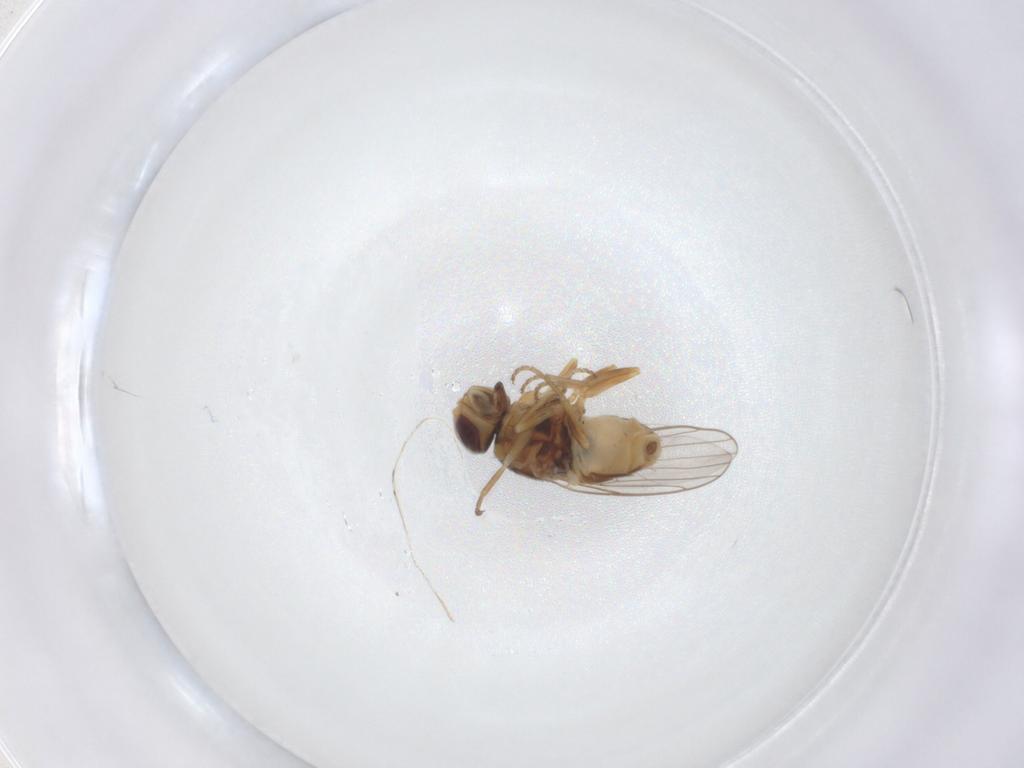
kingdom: Animalia
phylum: Arthropoda
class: Insecta
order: Diptera
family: Chloropidae
